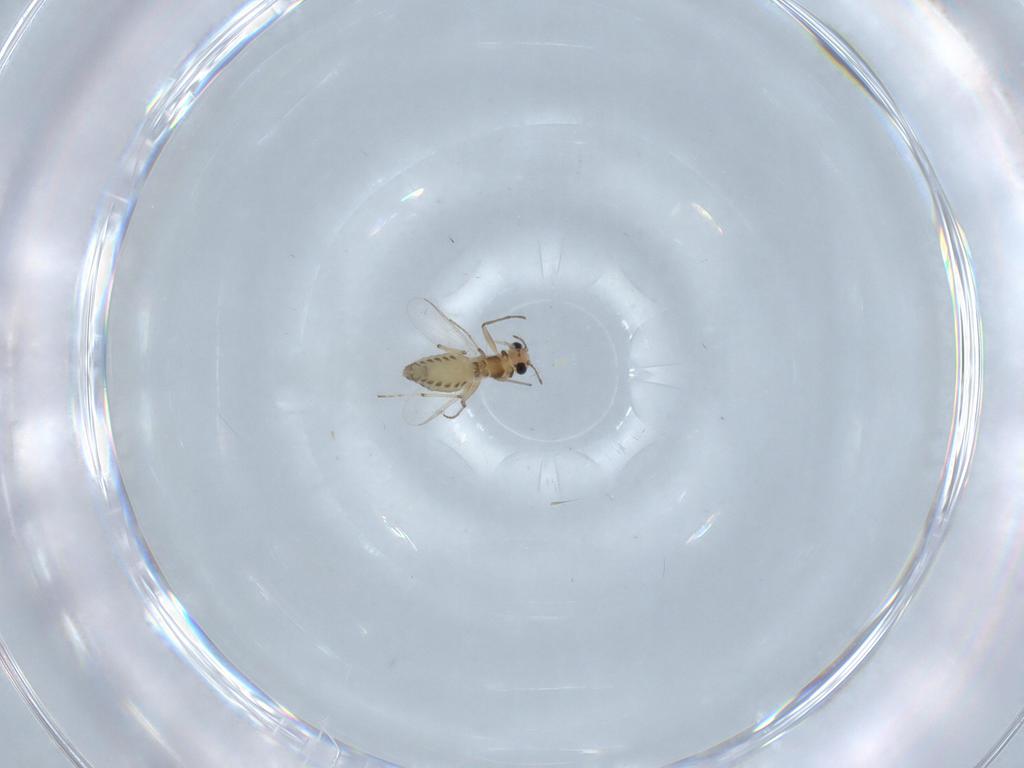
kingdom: Animalia
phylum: Arthropoda
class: Insecta
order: Diptera
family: Chironomidae
